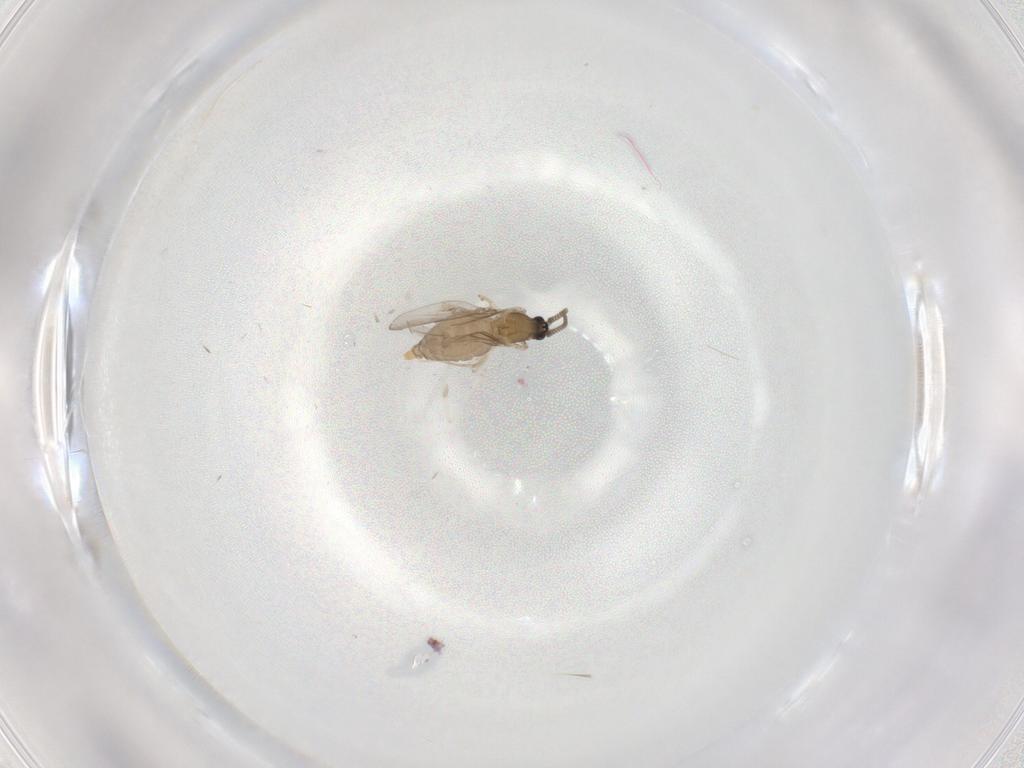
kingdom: Animalia
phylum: Arthropoda
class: Insecta
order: Diptera
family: Cecidomyiidae
